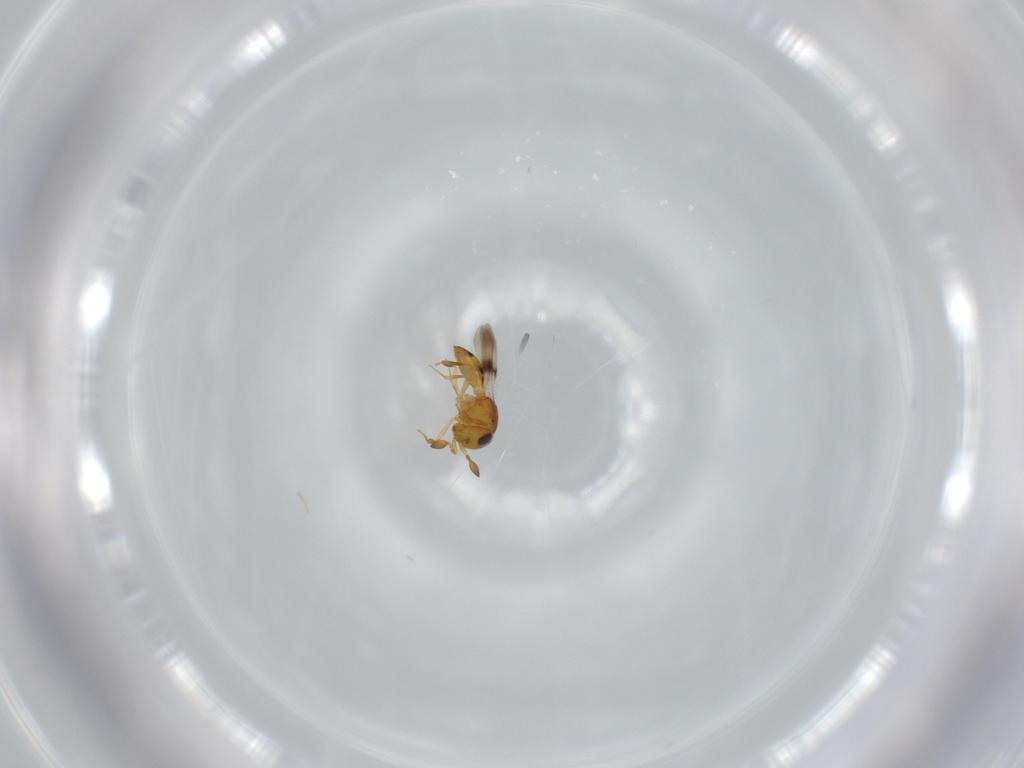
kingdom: Animalia
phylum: Arthropoda
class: Insecta
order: Hymenoptera
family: Scelionidae
